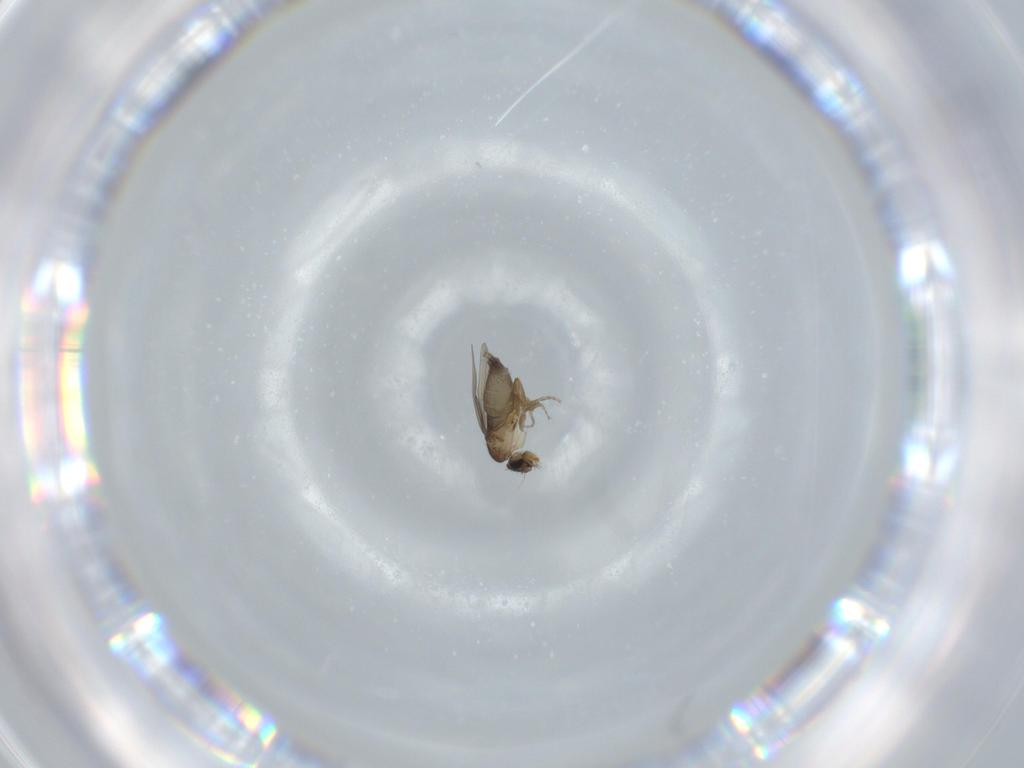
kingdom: Animalia
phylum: Arthropoda
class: Insecta
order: Diptera
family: Phoridae
